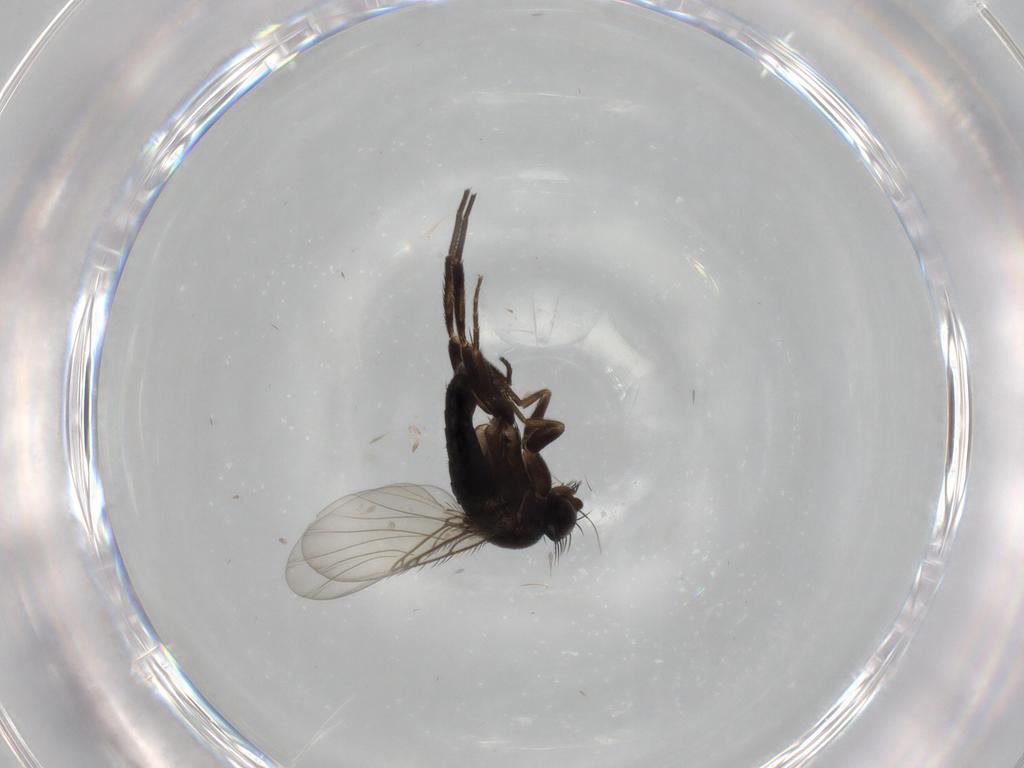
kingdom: Animalia
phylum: Arthropoda
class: Insecta
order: Diptera
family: Phoridae
